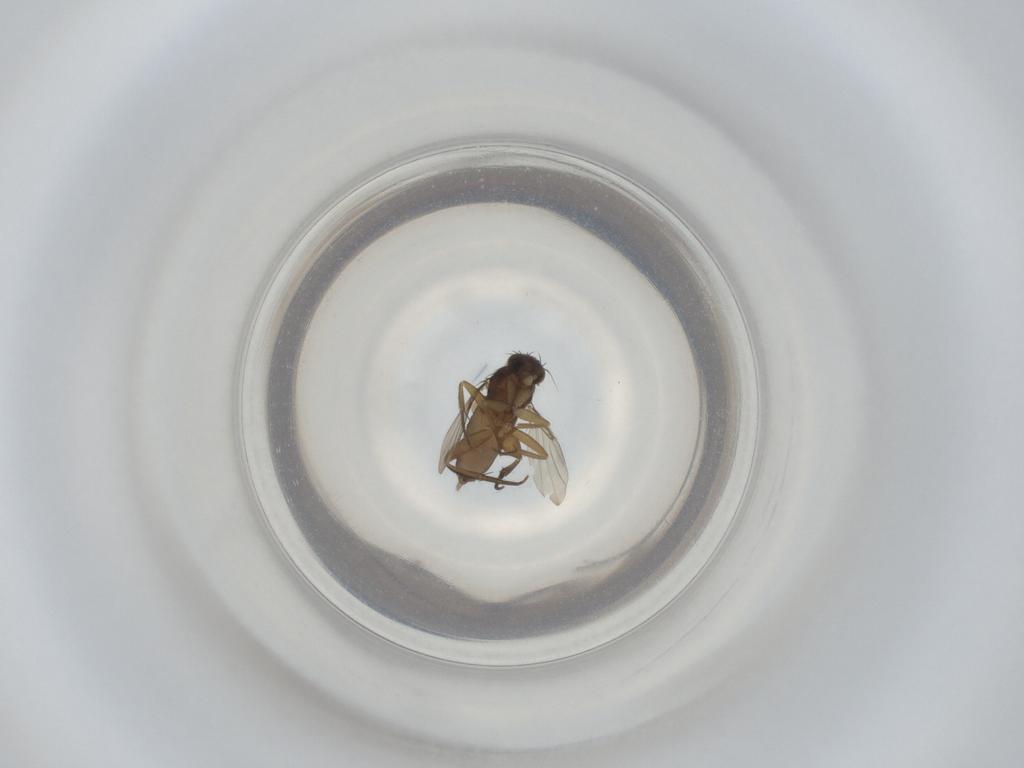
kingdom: Animalia
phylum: Arthropoda
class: Insecta
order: Diptera
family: Phoridae
